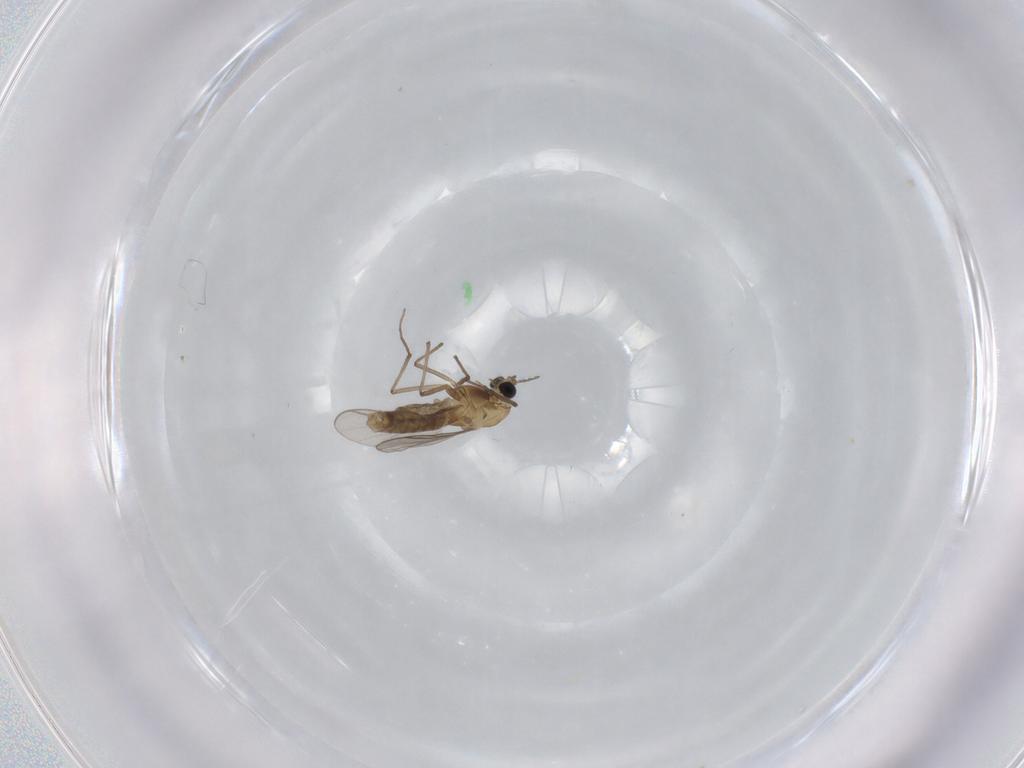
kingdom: Animalia
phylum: Arthropoda
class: Insecta
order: Diptera
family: Chironomidae
